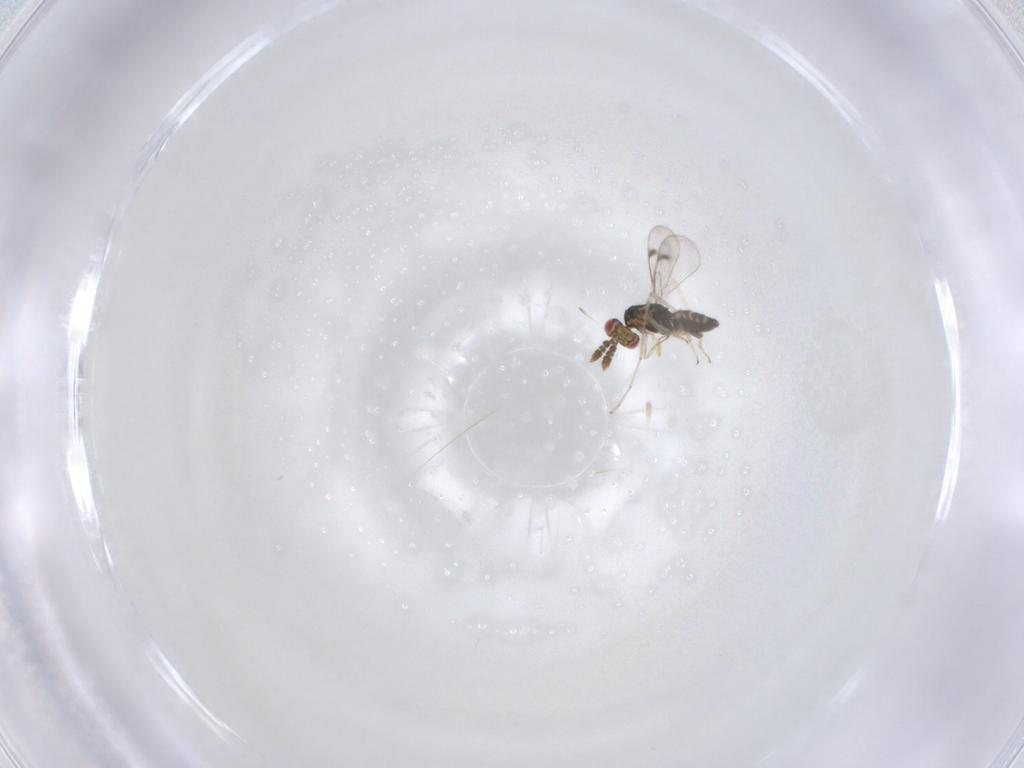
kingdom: Animalia
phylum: Arthropoda
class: Insecta
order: Hymenoptera
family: Eulophidae
